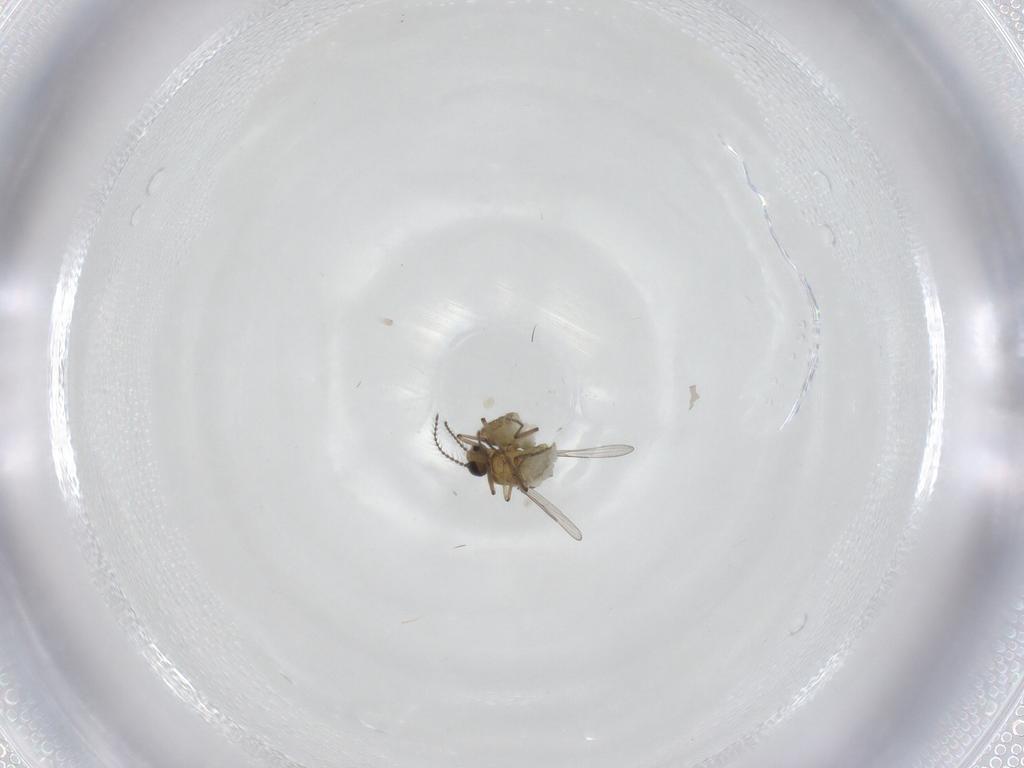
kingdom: Animalia
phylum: Arthropoda
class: Insecta
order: Diptera
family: Ceratopogonidae
